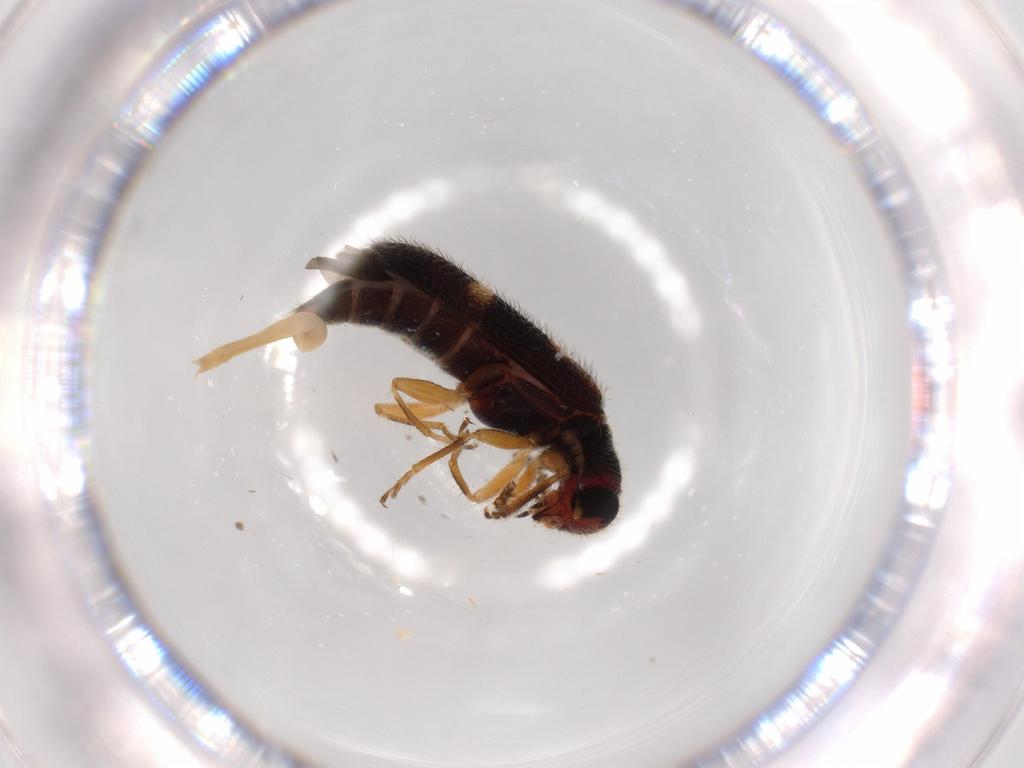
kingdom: Animalia
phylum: Arthropoda
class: Insecta
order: Coleoptera
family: Cleridae
